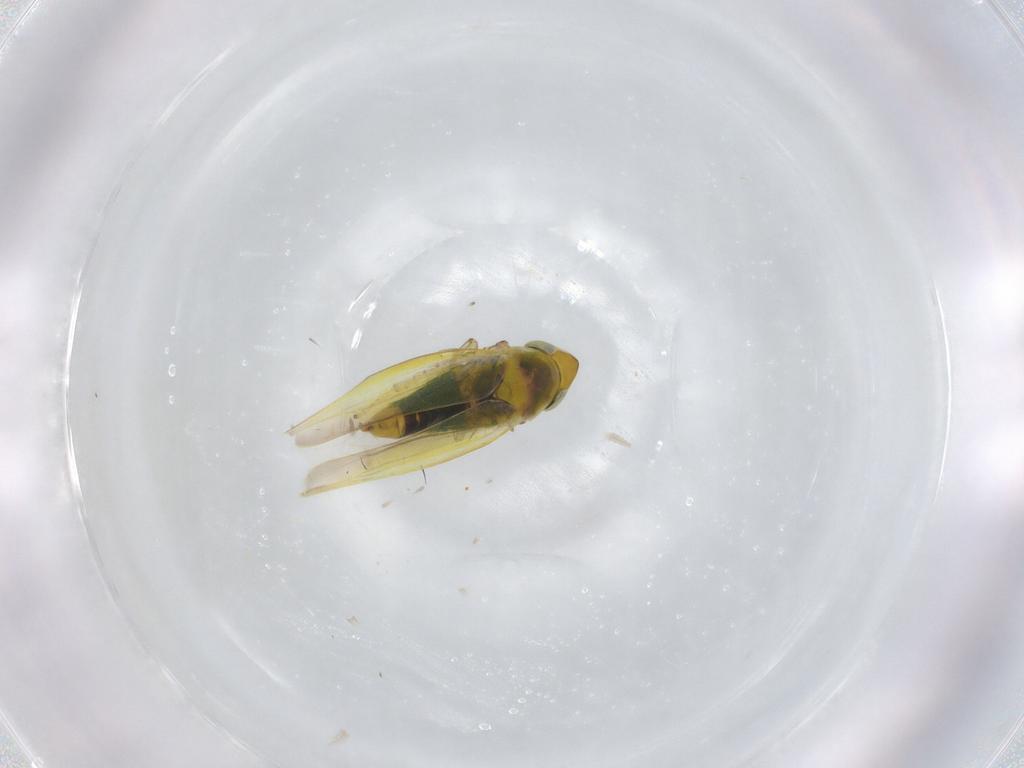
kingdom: Animalia
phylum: Arthropoda
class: Insecta
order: Hemiptera
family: Cicadellidae
